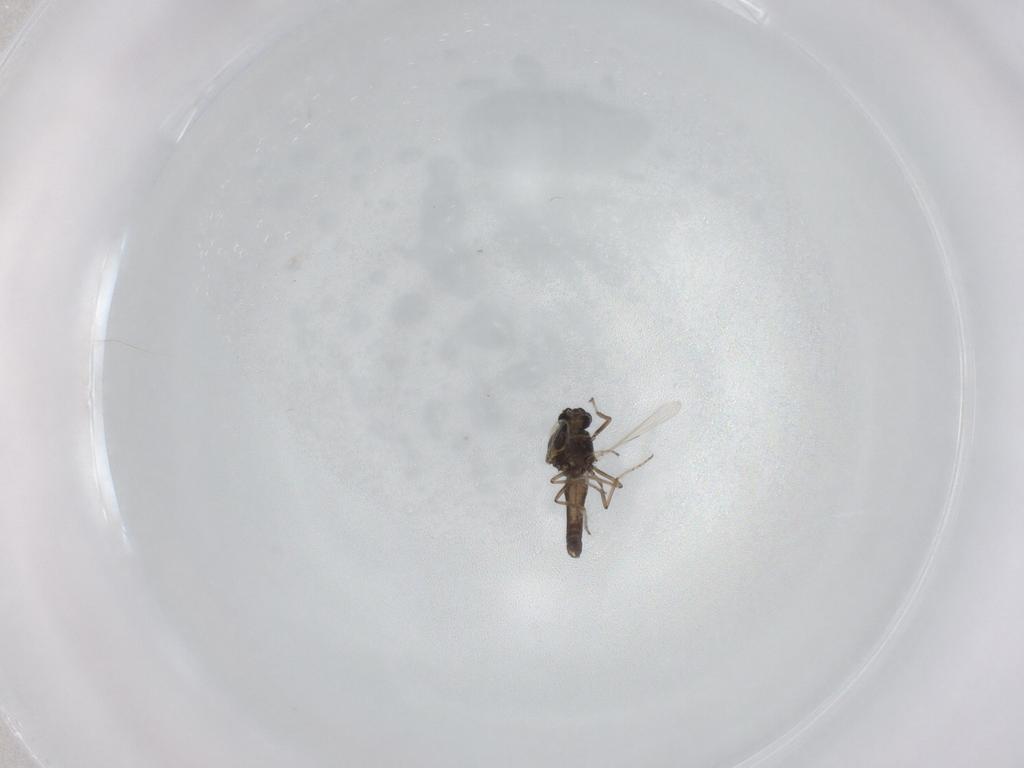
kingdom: Animalia
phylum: Arthropoda
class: Insecta
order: Diptera
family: Ceratopogonidae
